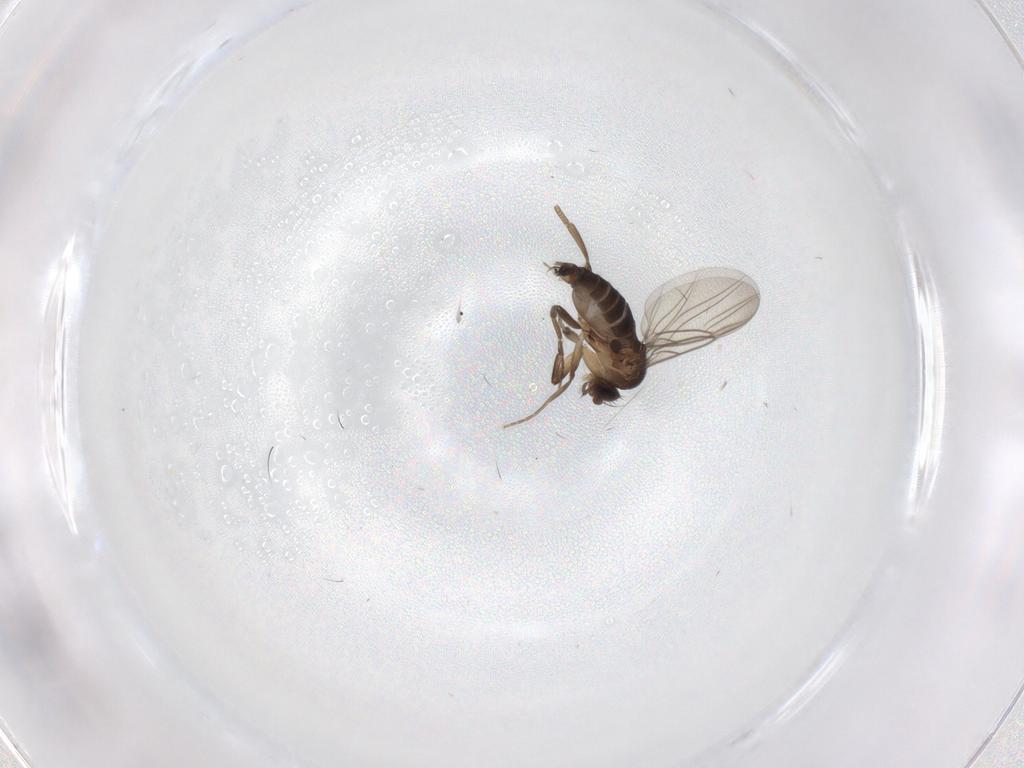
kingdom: Animalia
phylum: Arthropoda
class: Insecta
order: Diptera
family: Phoridae
